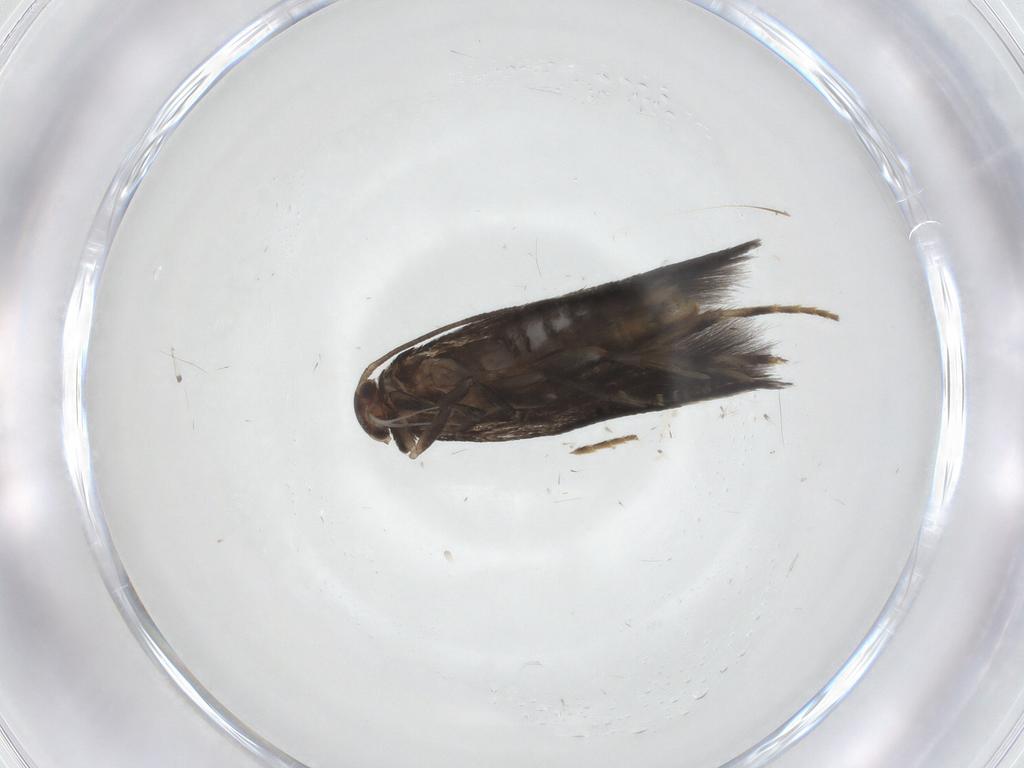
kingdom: Animalia
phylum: Arthropoda
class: Insecta
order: Lepidoptera
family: Elachistidae
